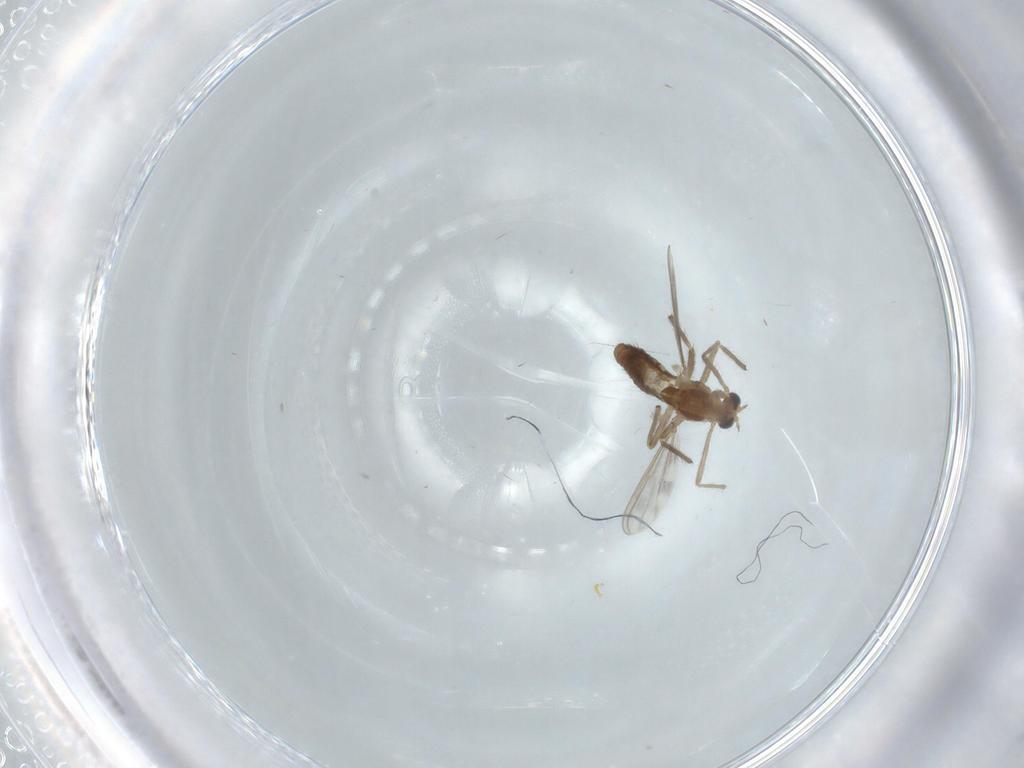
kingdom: Animalia
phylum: Arthropoda
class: Insecta
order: Diptera
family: Chironomidae
